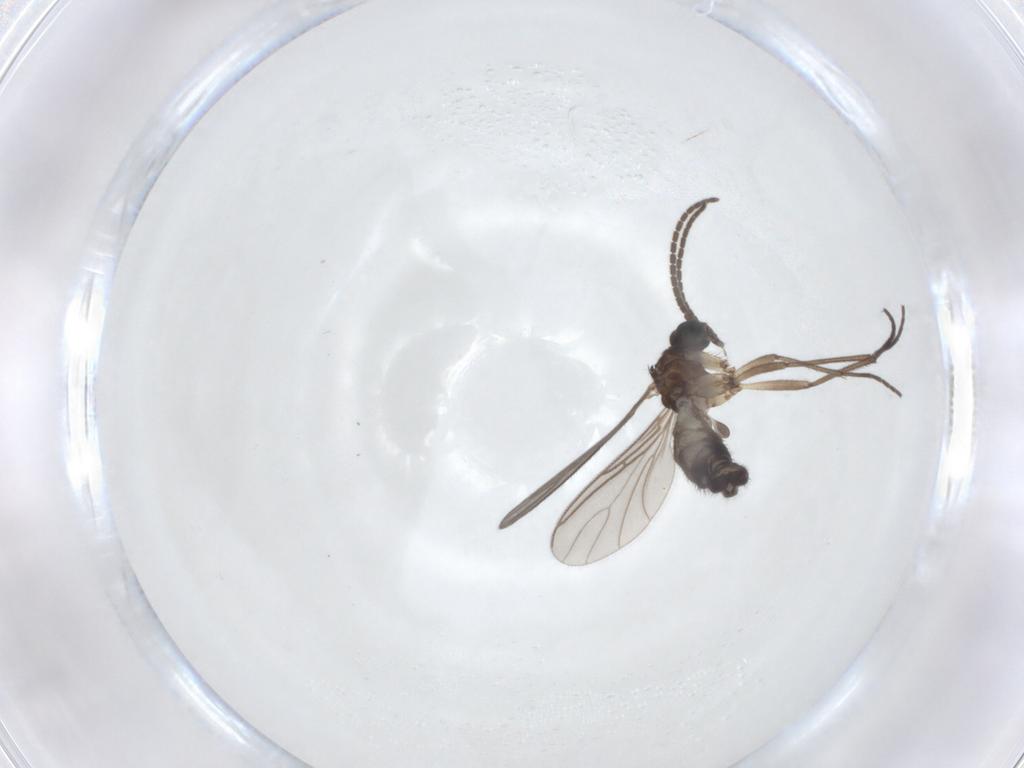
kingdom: Animalia
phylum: Arthropoda
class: Insecta
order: Diptera
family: Sciaridae
